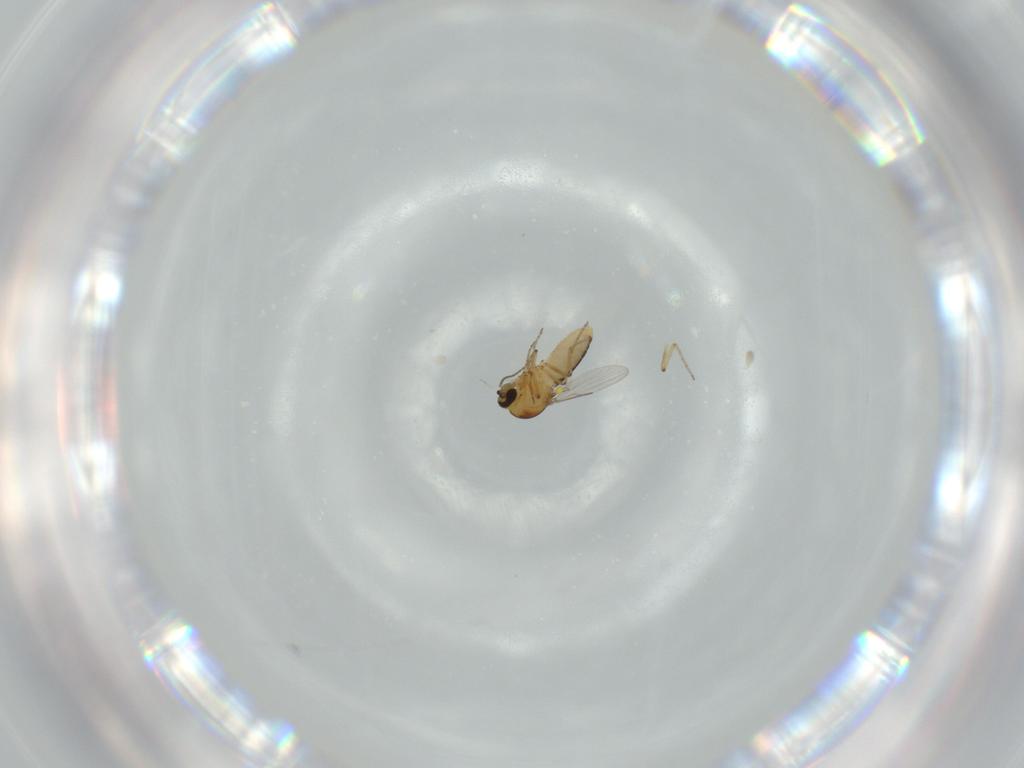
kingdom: Animalia
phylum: Arthropoda
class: Insecta
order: Diptera
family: Ceratopogonidae
